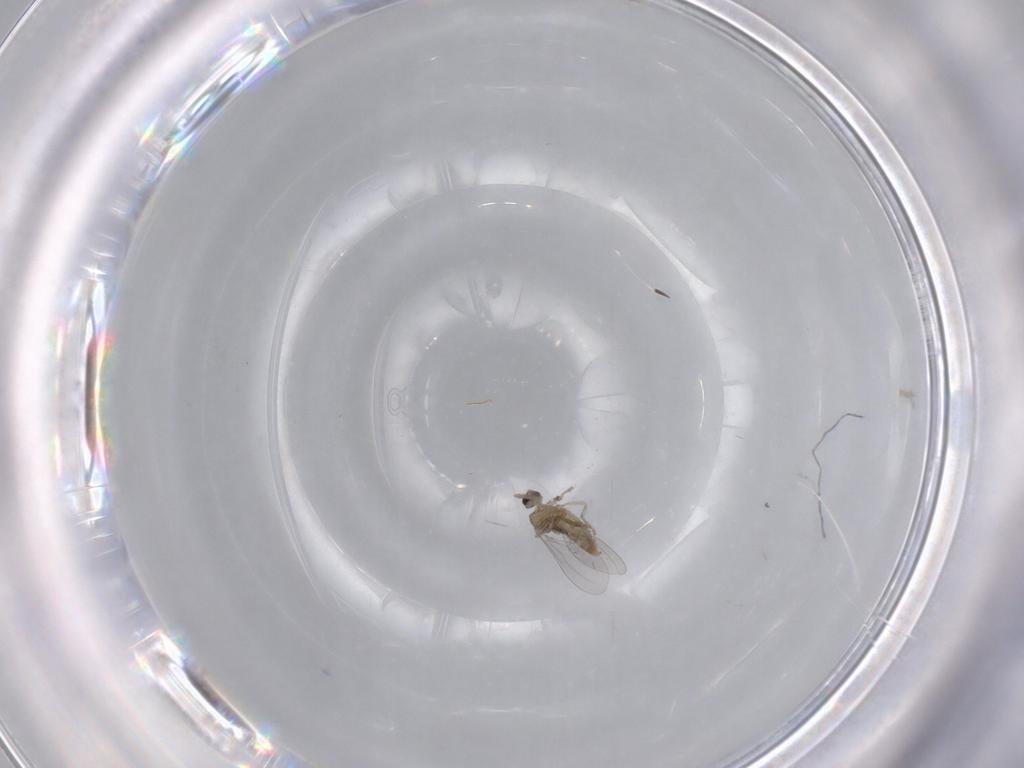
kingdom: Animalia
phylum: Arthropoda
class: Insecta
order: Diptera
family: Cecidomyiidae
